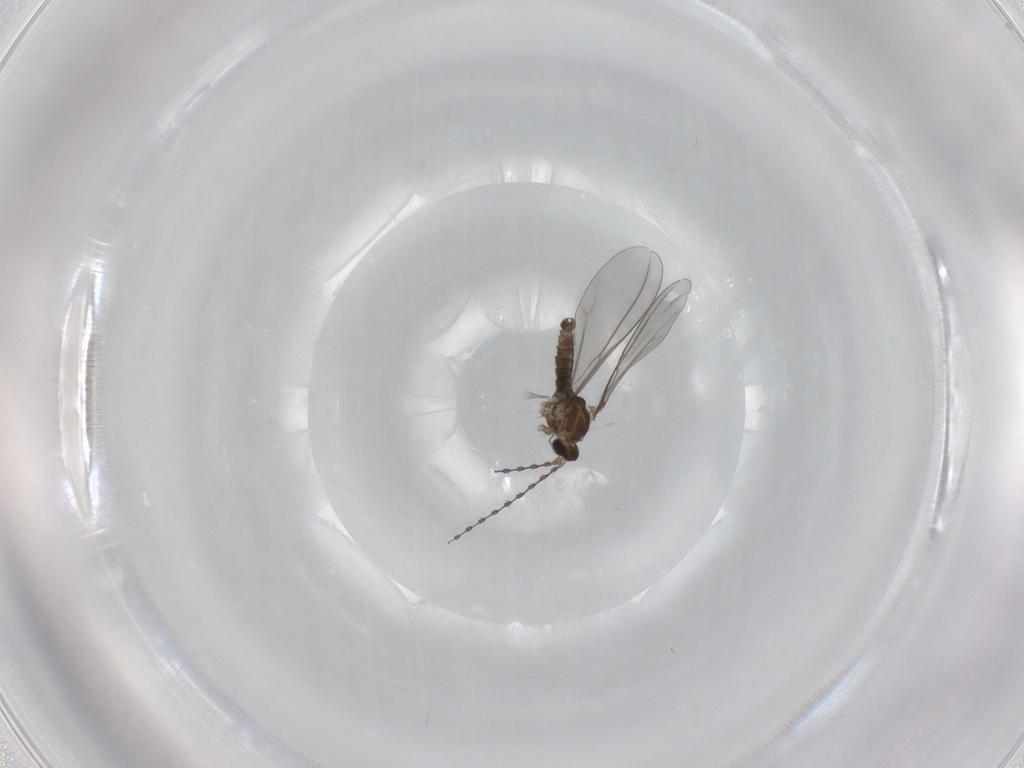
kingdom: Animalia
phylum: Arthropoda
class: Insecta
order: Diptera
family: Cecidomyiidae
